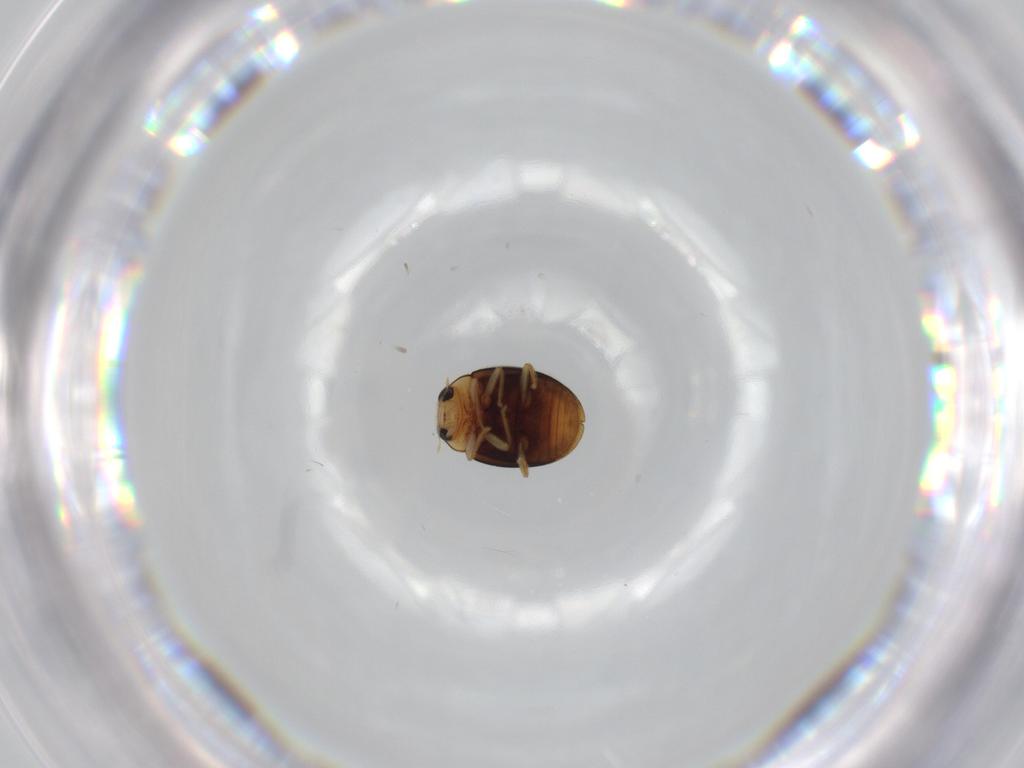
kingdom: Animalia
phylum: Arthropoda
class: Insecta
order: Coleoptera
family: Coccinellidae
